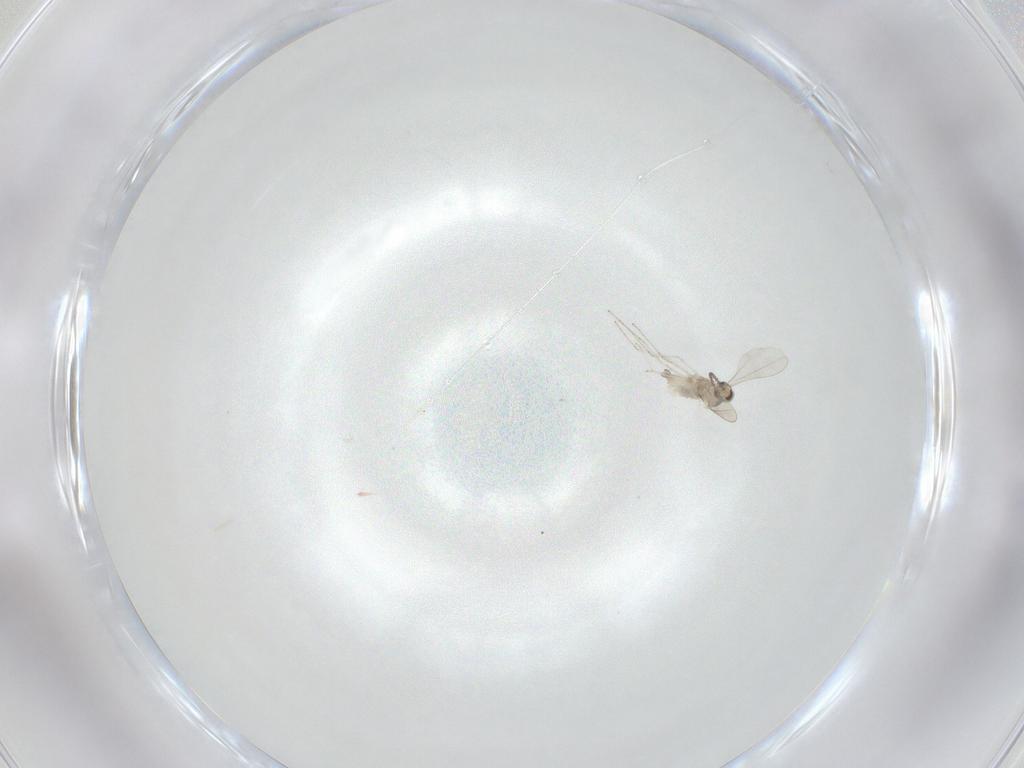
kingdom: Animalia
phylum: Arthropoda
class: Insecta
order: Diptera
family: Cecidomyiidae
